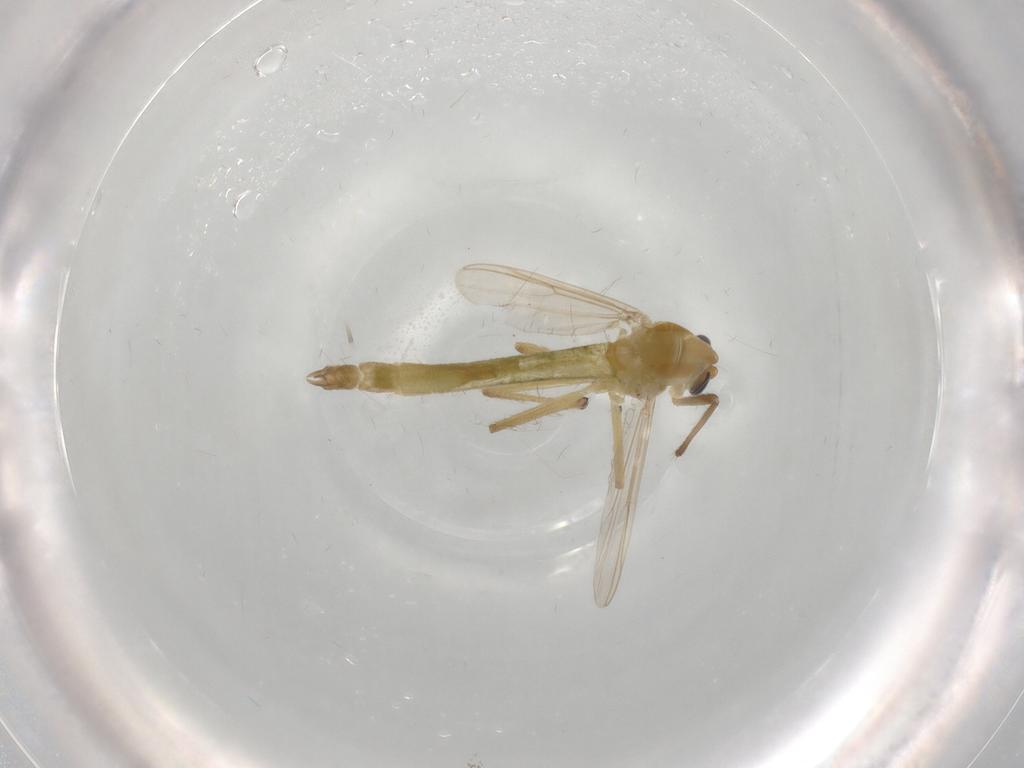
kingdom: Animalia
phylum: Arthropoda
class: Insecta
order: Diptera
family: Chironomidae
